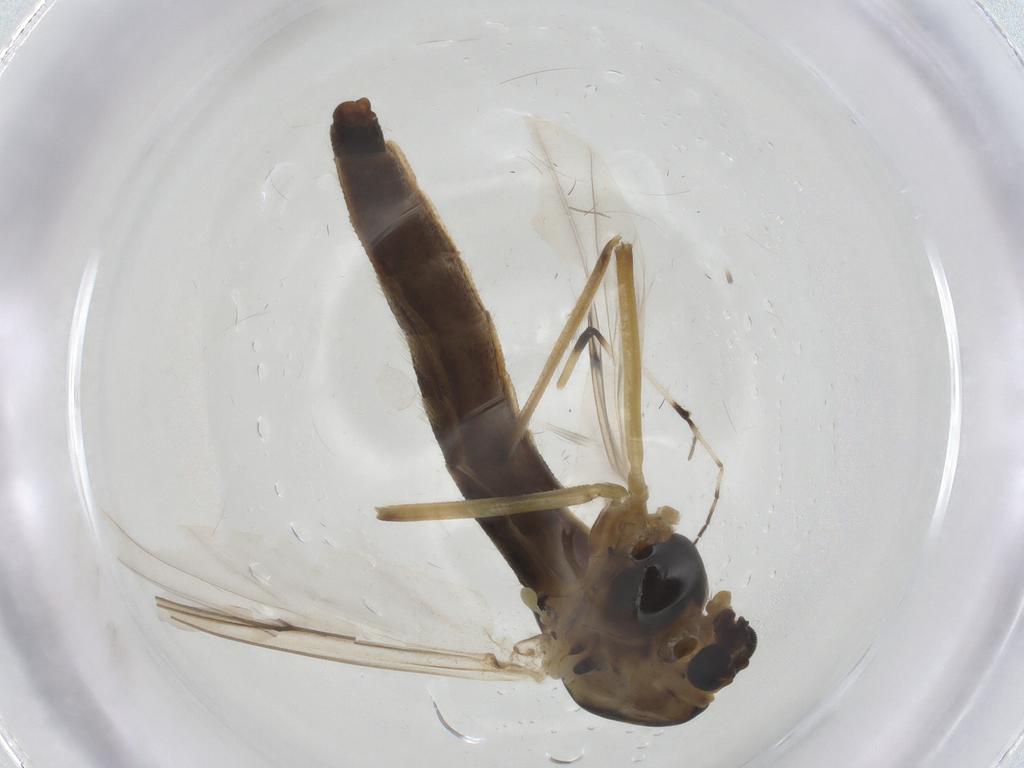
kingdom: Animalia
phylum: Arthropoda
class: Insecta
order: Diptera
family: Chironomidae
